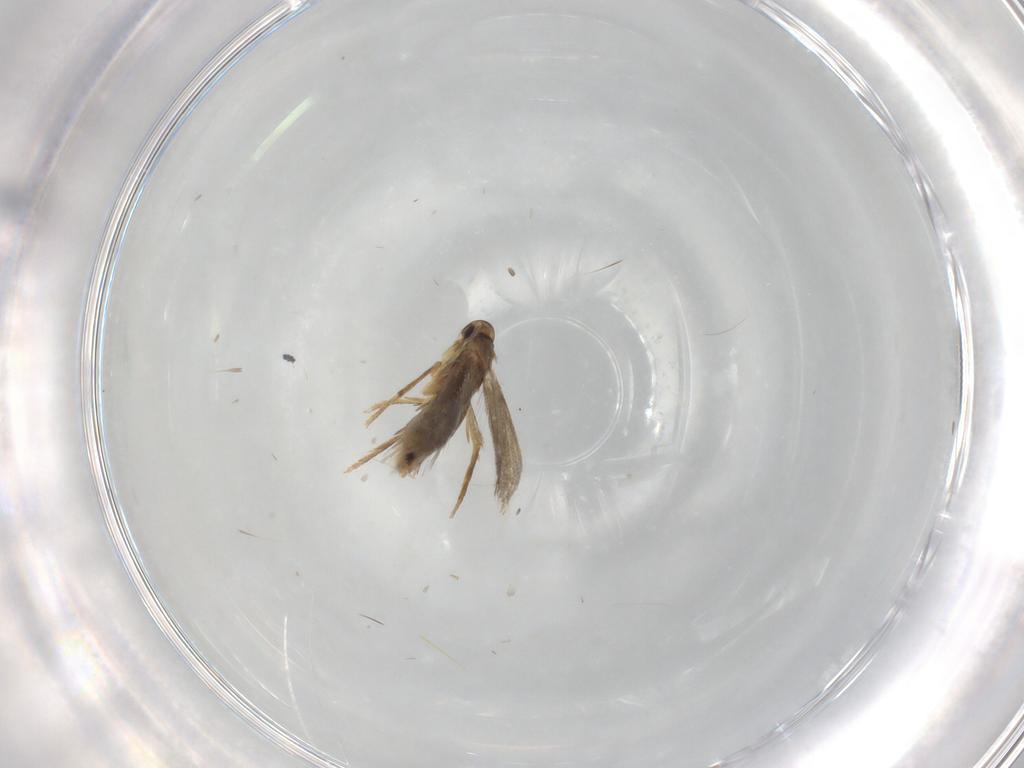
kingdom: Animalia
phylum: Arthropoda
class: Insecta
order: Lepidoptera
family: Heliozelidae
